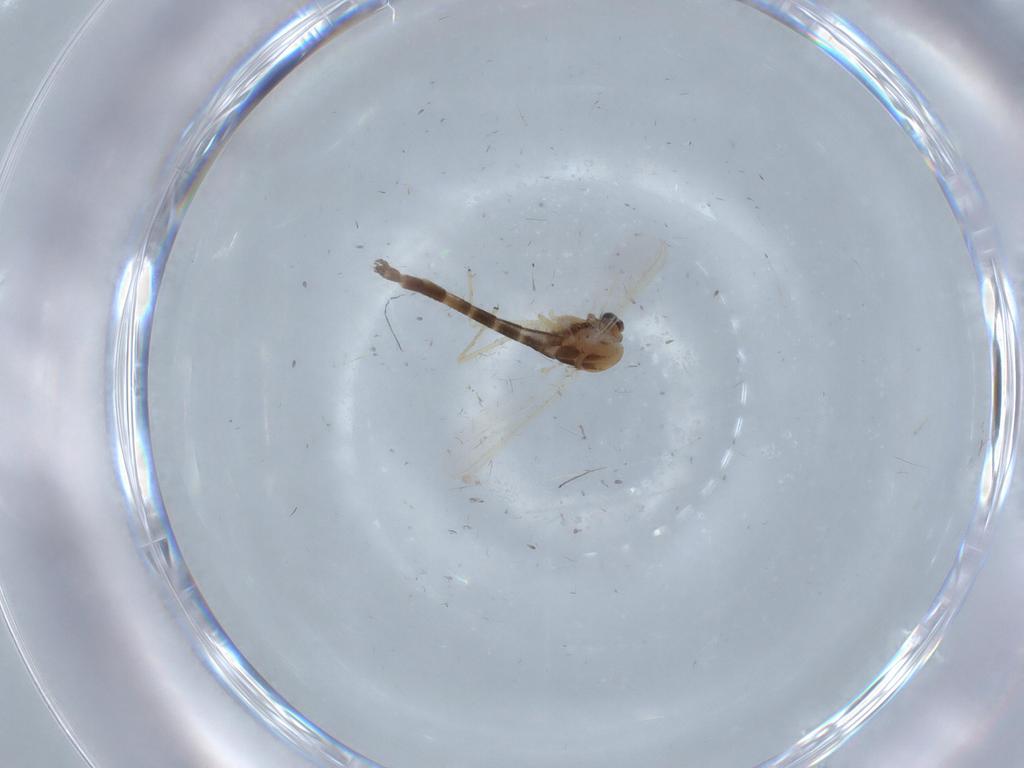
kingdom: Animalia
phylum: Arthropoda
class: Insecta
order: Diptera
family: Chironomidae
